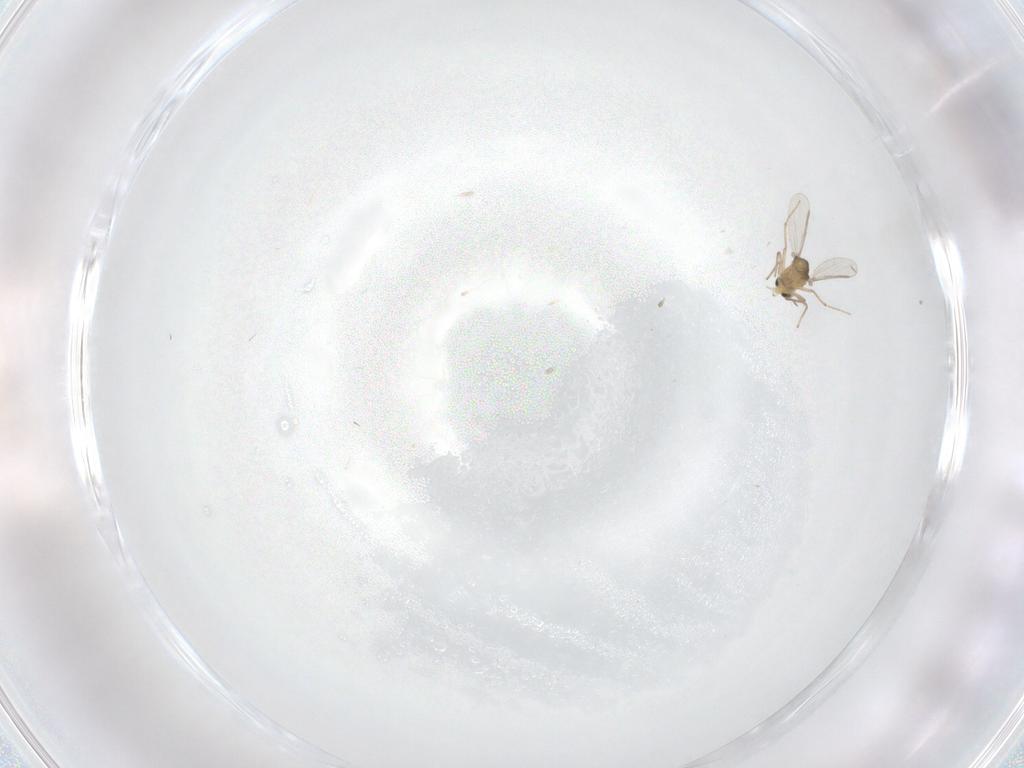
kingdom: Animalia
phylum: Arthropoda
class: Insecta
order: Diptera
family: Chironomidae
